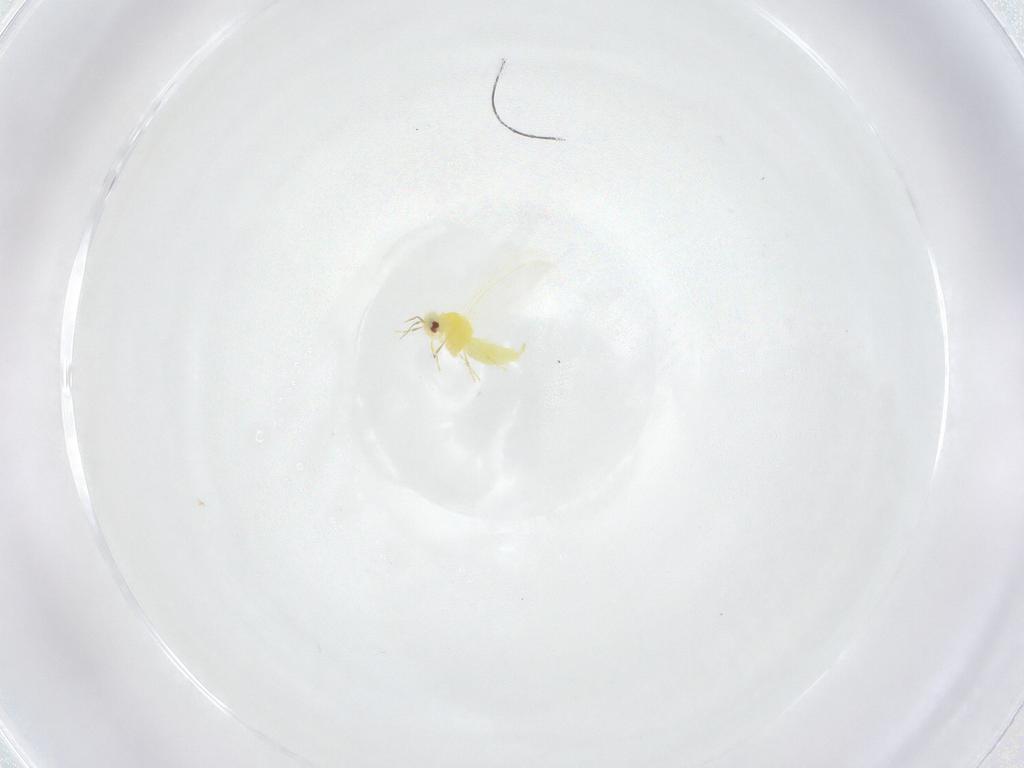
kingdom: Animalia
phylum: Arthropoda
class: Insecta
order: Hemiptera
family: Aleyrodidae
